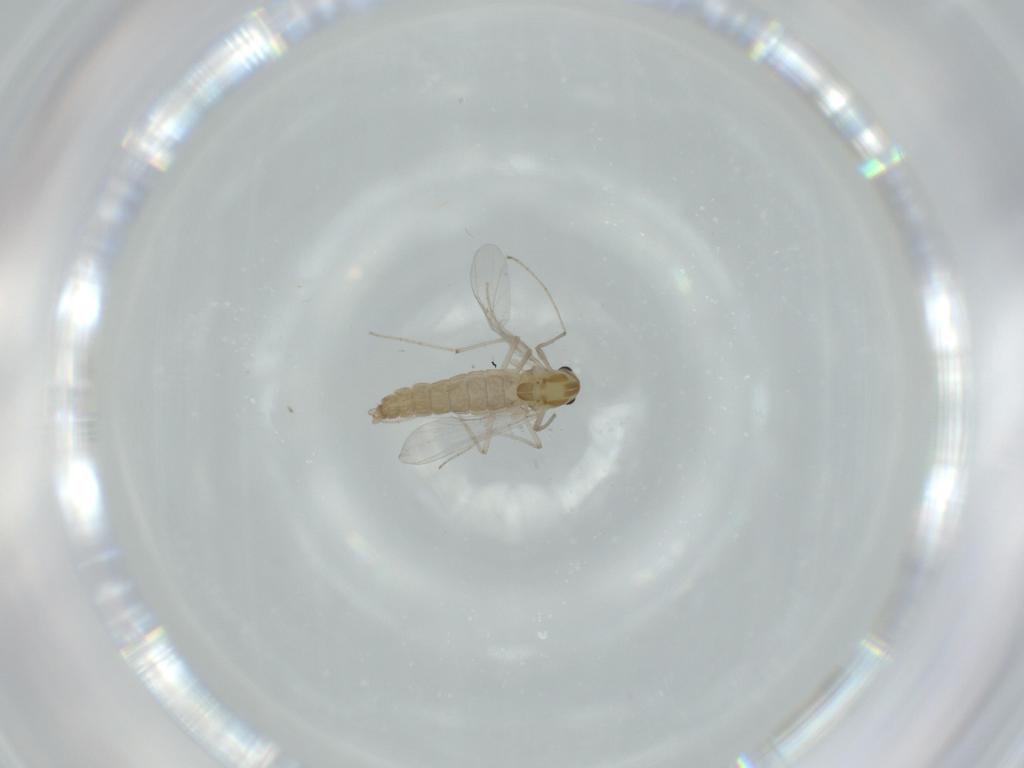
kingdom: Animalia
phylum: Arthropoda
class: Insecta
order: Diptera
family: Chironomidae
